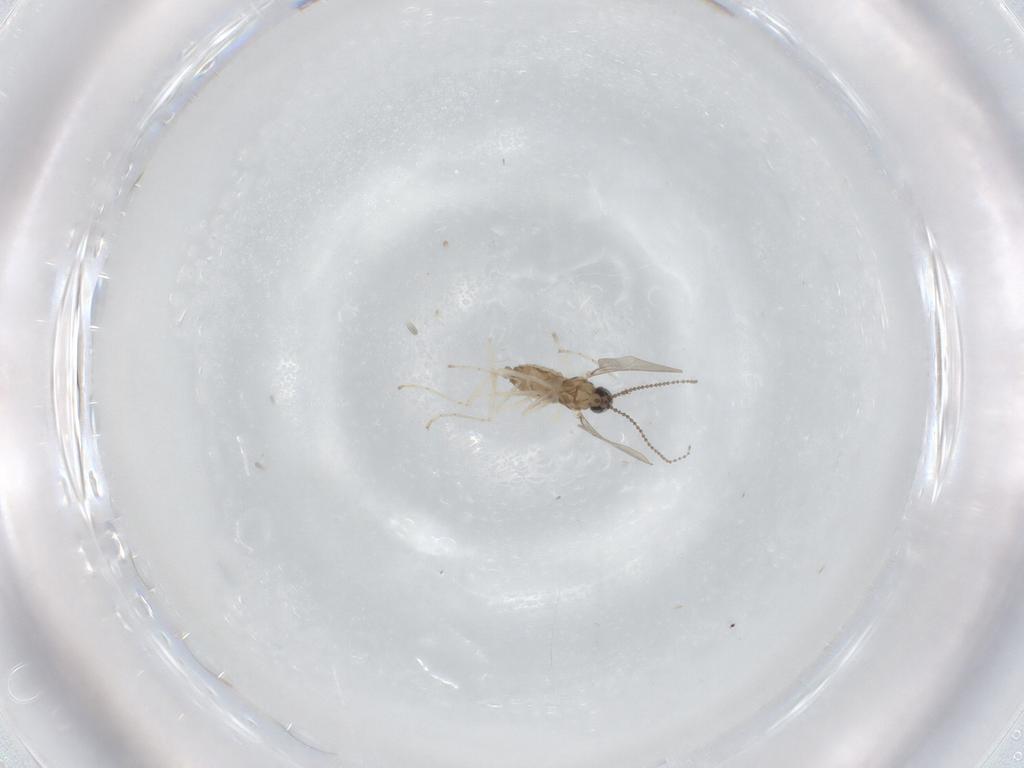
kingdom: Animalia
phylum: Arthropoda
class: Insecta
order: Diptera
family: Cecidomyiidae
